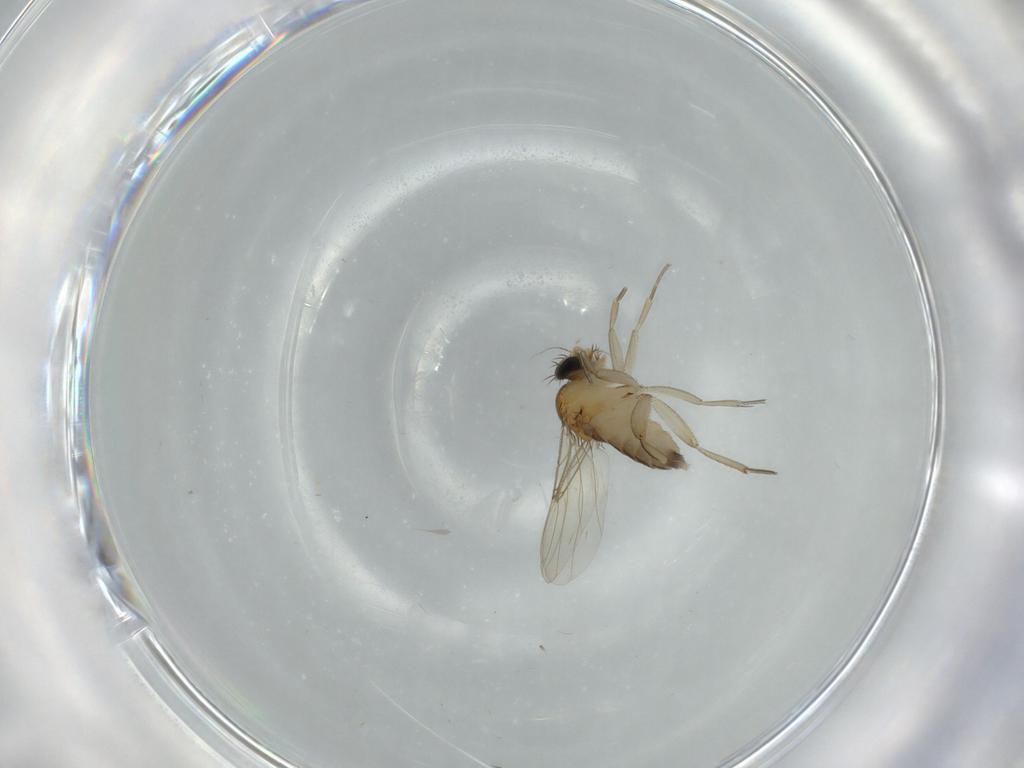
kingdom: Animalia
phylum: Arthropoda
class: Insecta
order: Diptera
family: Phoridae
